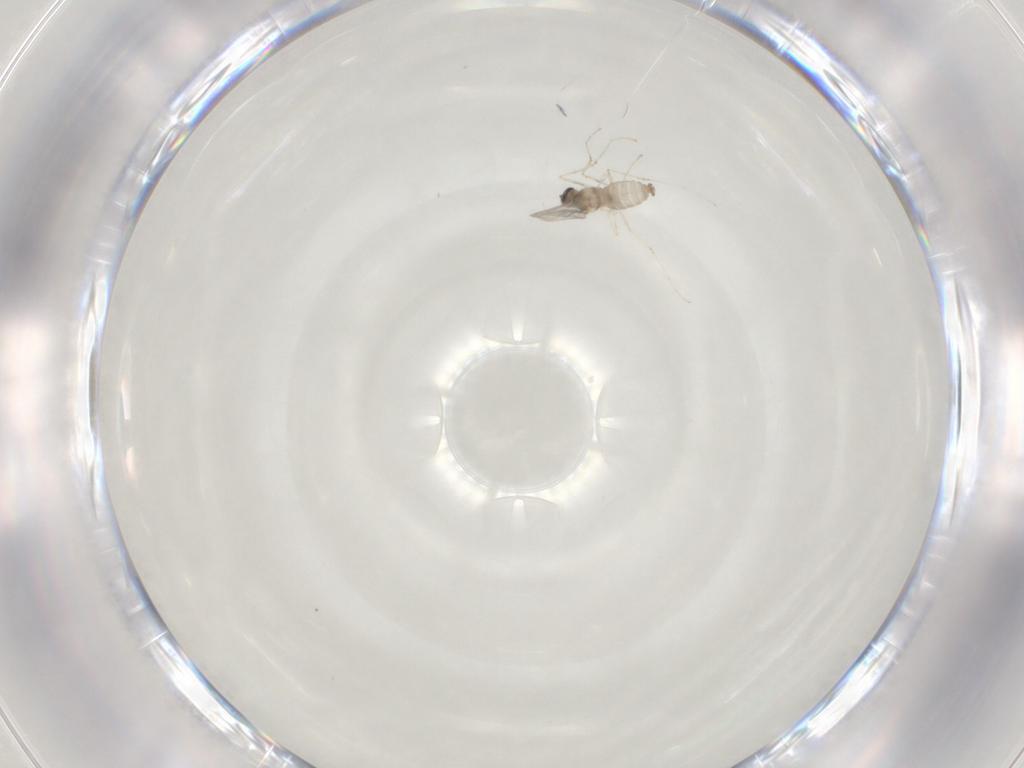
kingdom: Animalia
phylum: Arthropoda
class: Insecta
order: Diptera
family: Cecidomyiidae
